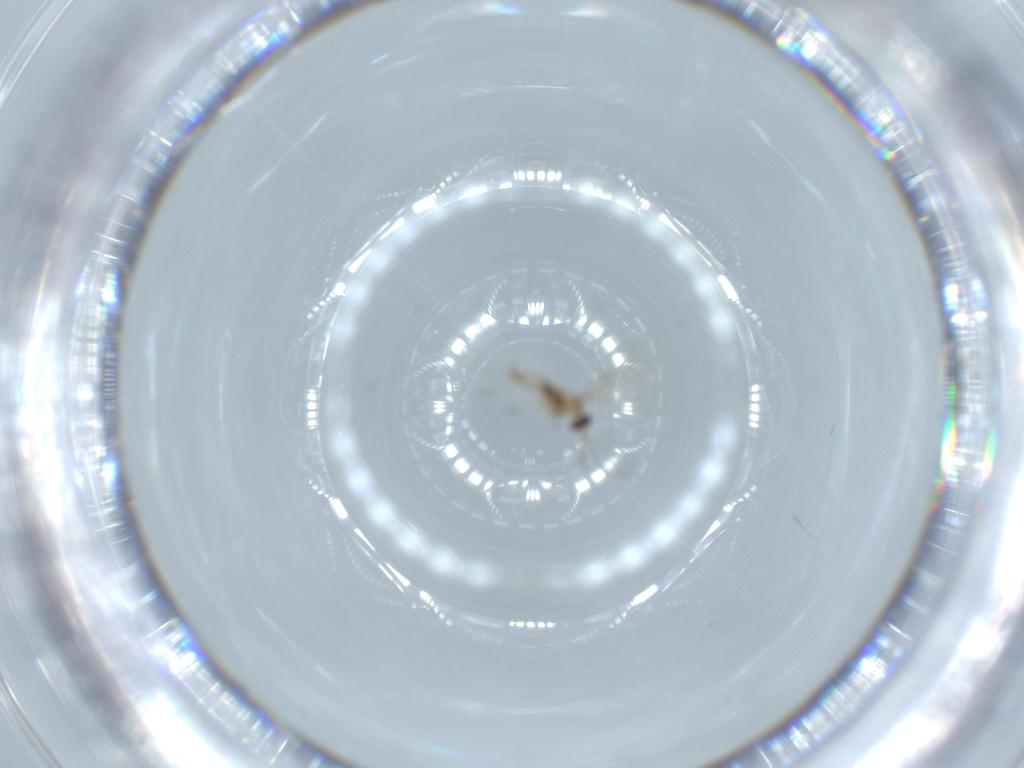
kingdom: Animalia
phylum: Arthropoda
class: Insecta
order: Diptera
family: Cecidomyiidae
